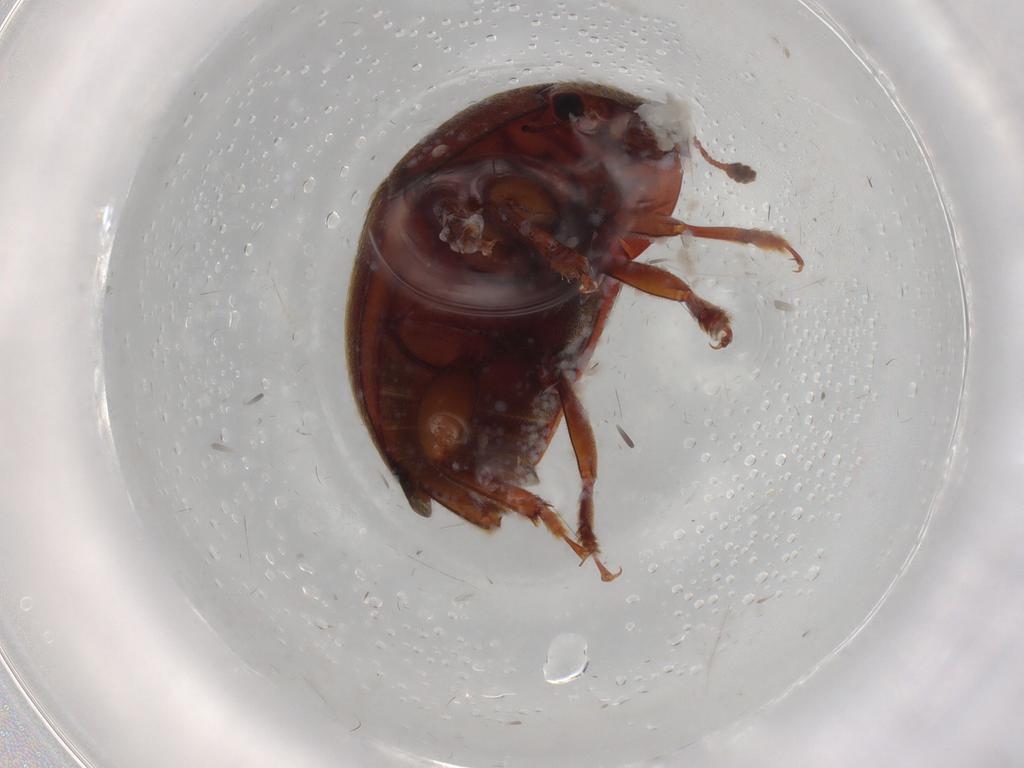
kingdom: Animalia
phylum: Arthropoda
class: Insecta
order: Coleoptera
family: Nitidulidae
